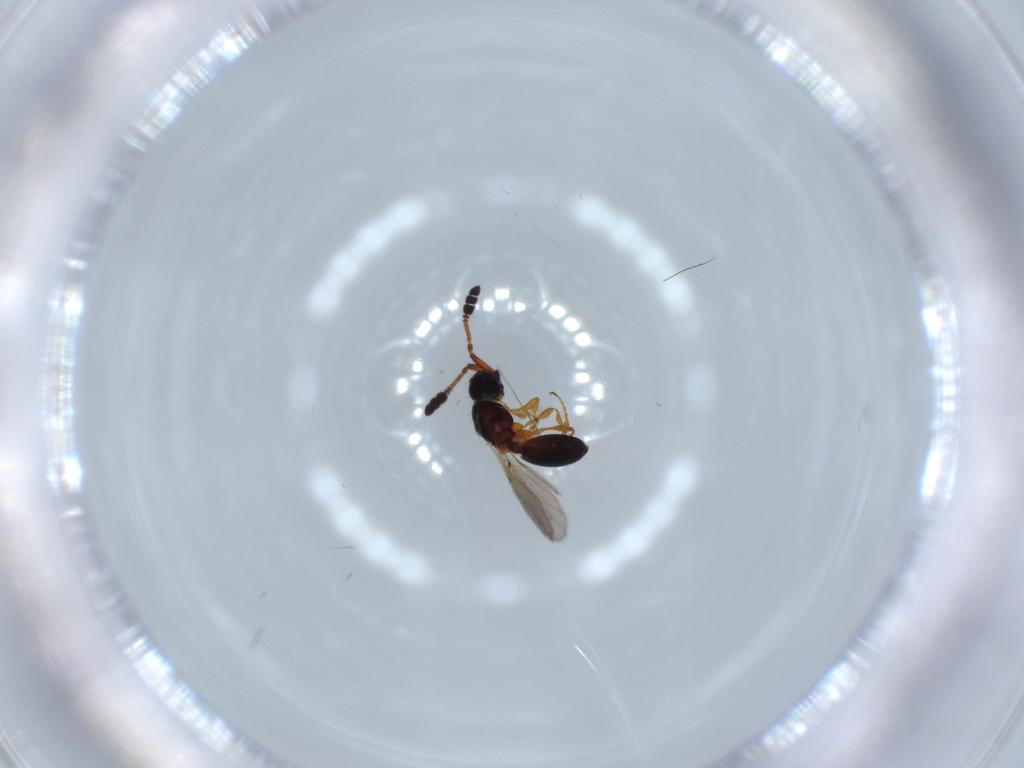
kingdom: Animalia
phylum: Arthropoda
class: Insecta
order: Hymenoptera
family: Diapriidae
